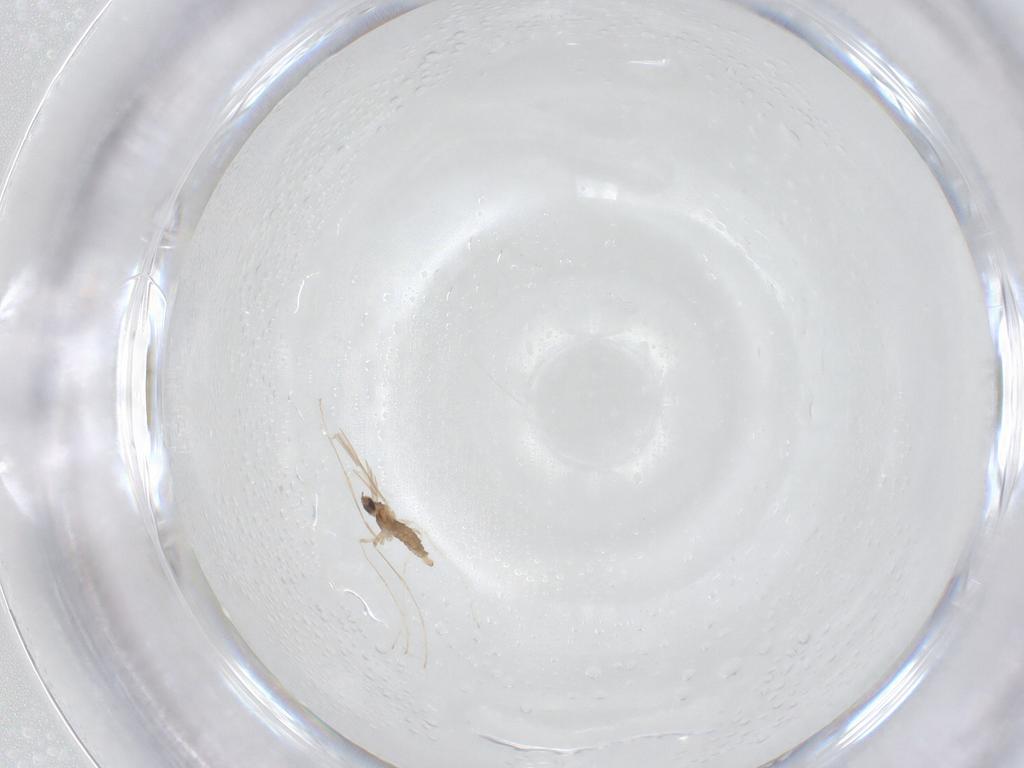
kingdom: Animalia
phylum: Arthropoda
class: Insecta
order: Diptera
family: Cecidomyiidae
